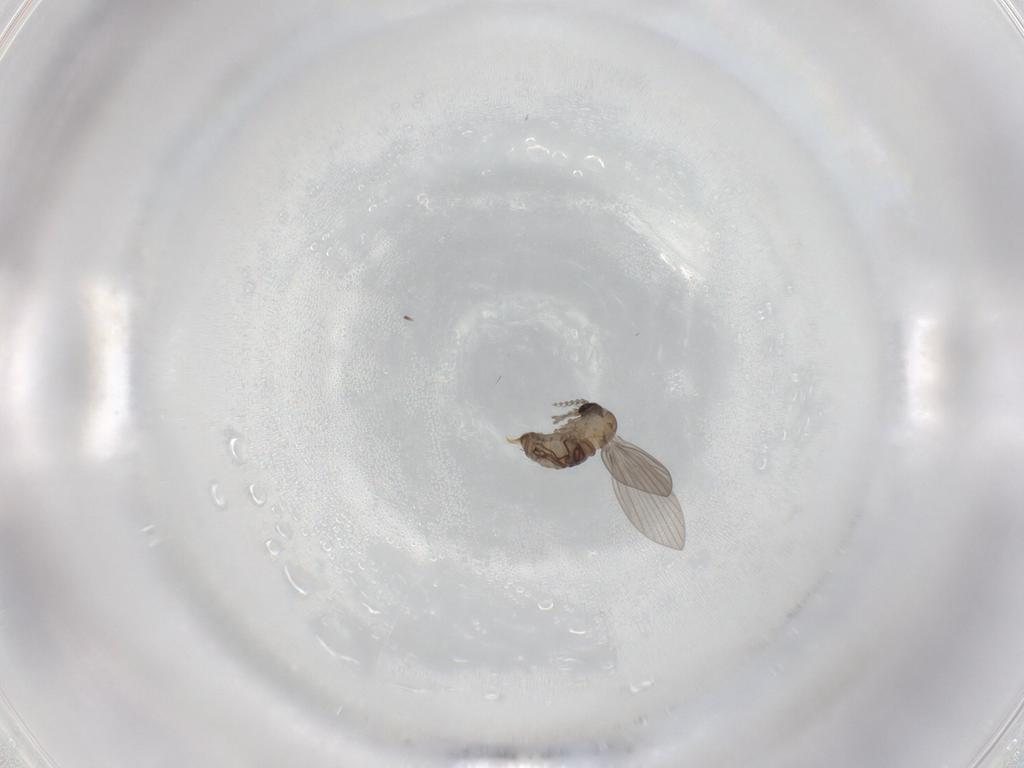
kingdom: Animalia
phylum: Arthropoda
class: Insecta
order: Diptera
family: Psychodidae
